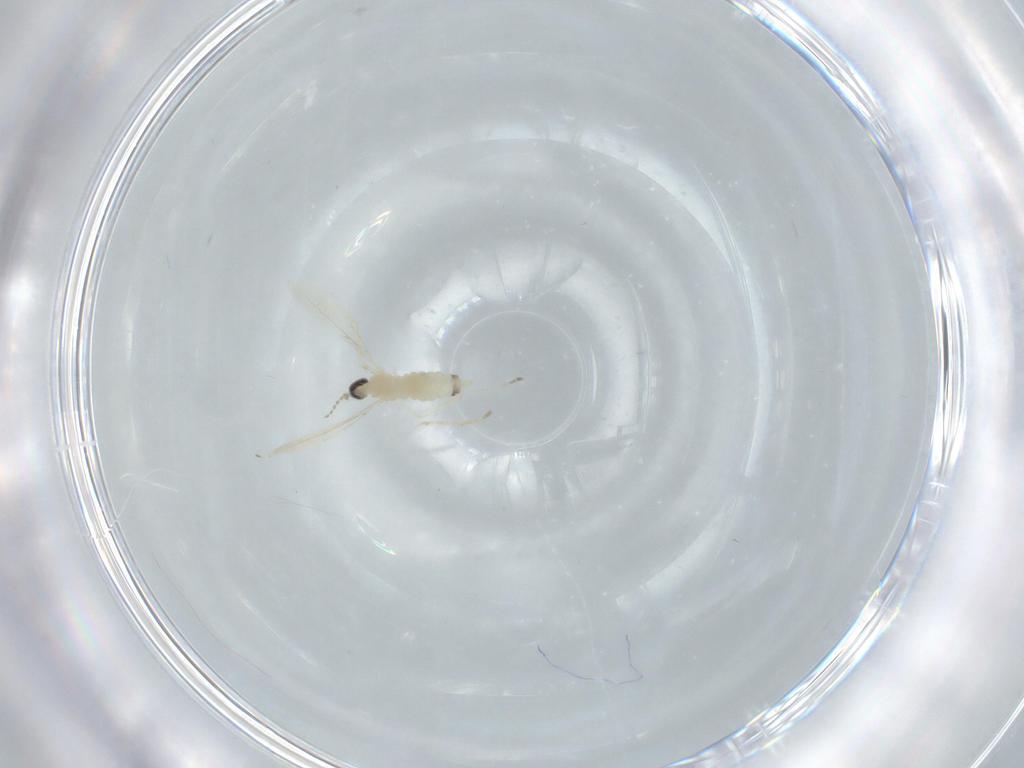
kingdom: Animalia
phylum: Arthropoda
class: Insecta
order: Diptera
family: Cecidomyiidae
